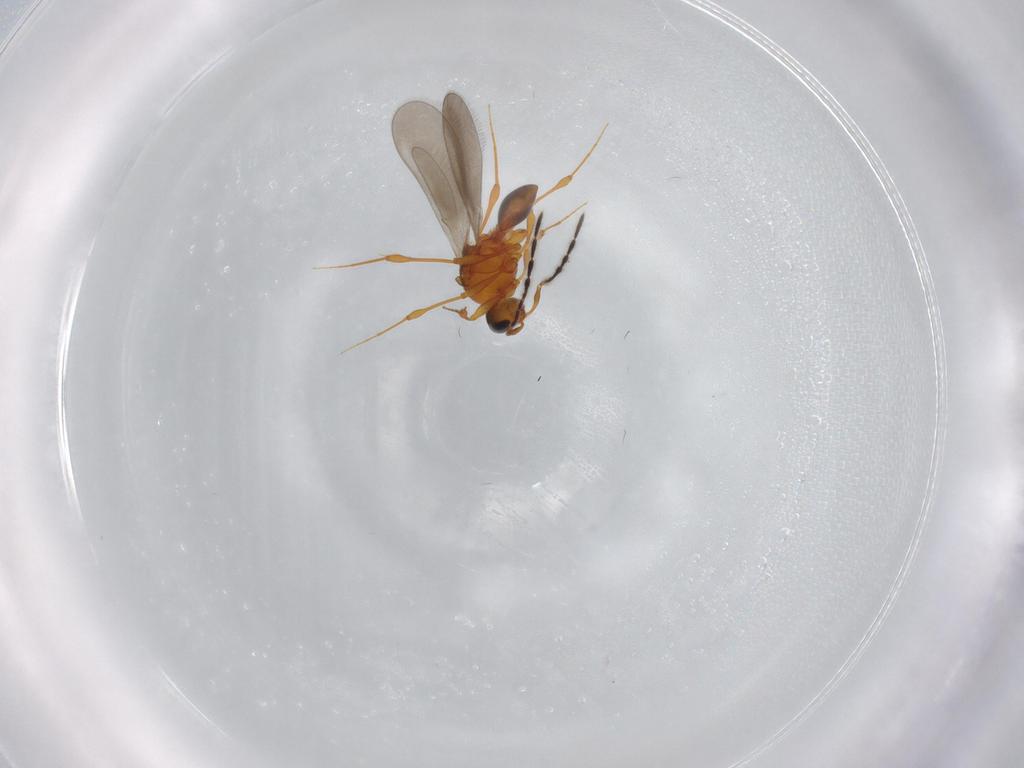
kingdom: Animalia
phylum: Arthropoda
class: Insecta
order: Hymenoptera
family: Platygastridae
